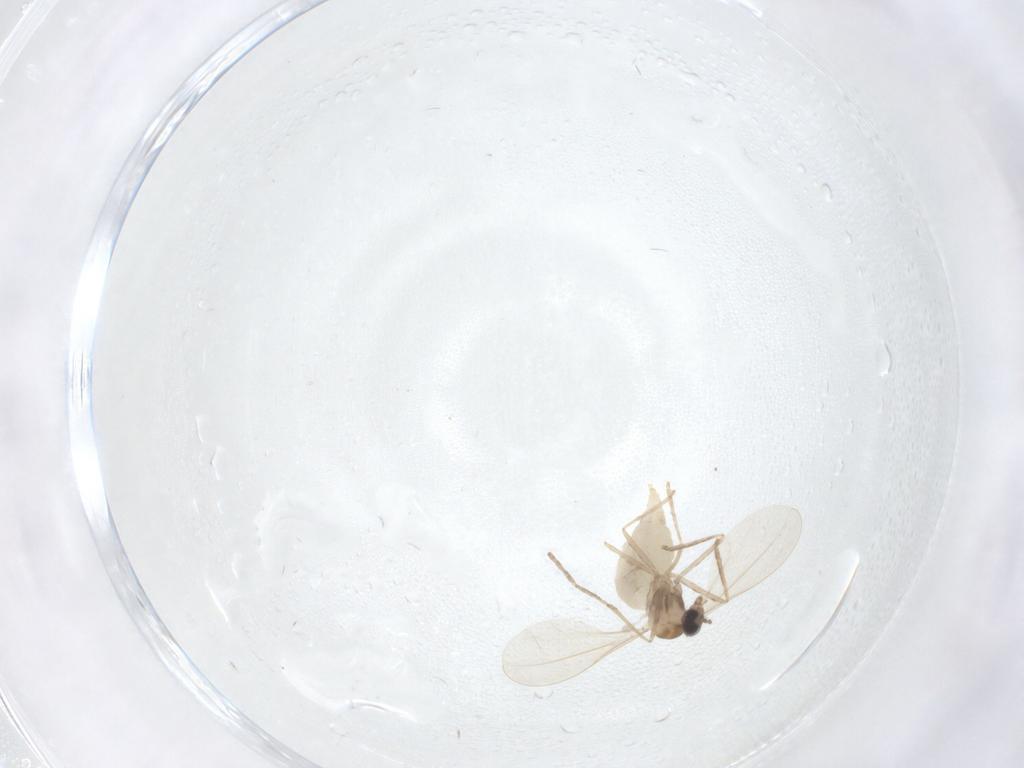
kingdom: Animalia
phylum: Arthropoda
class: Insecta
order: Diptera
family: Cecidomyiidae
